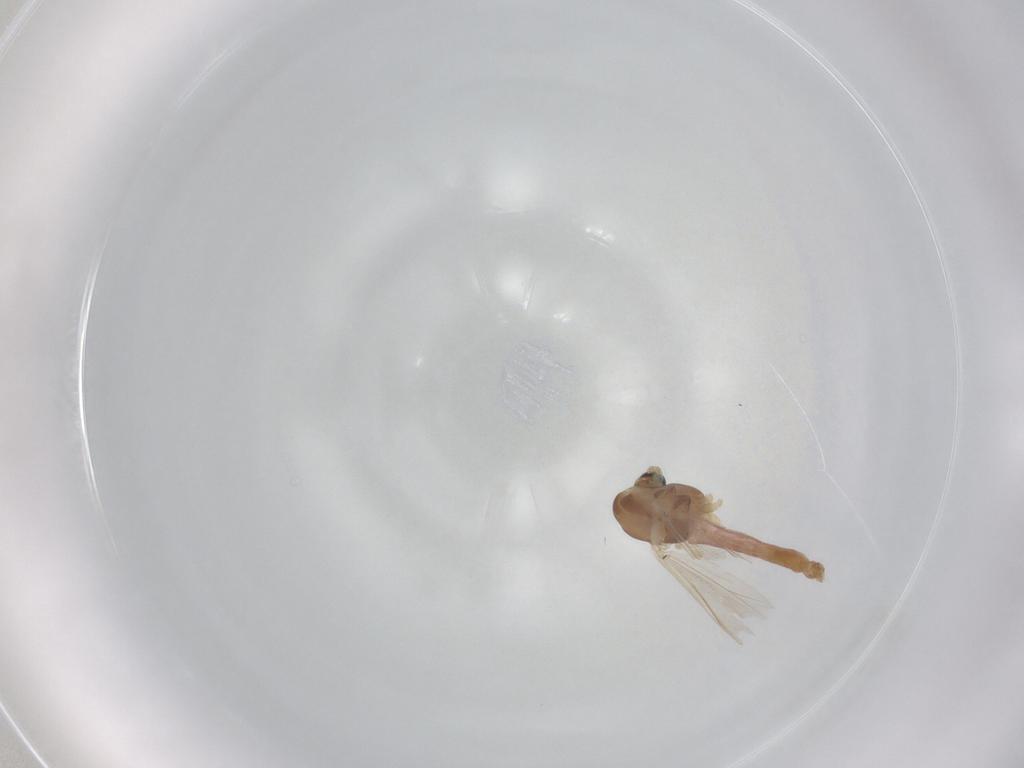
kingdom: Animalia
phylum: Arthropoda
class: Insecta
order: Diptera
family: Chironomidae
